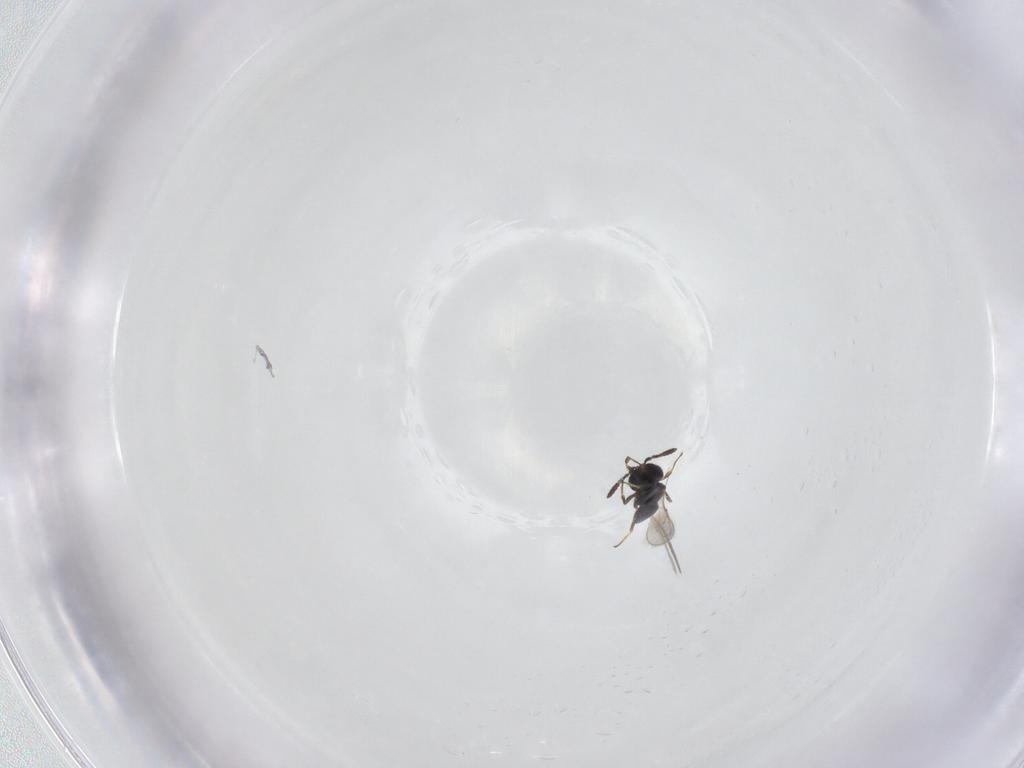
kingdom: Animalia
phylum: Arthropoda
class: Insecta
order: Hymenoptera
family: Scelionidae
